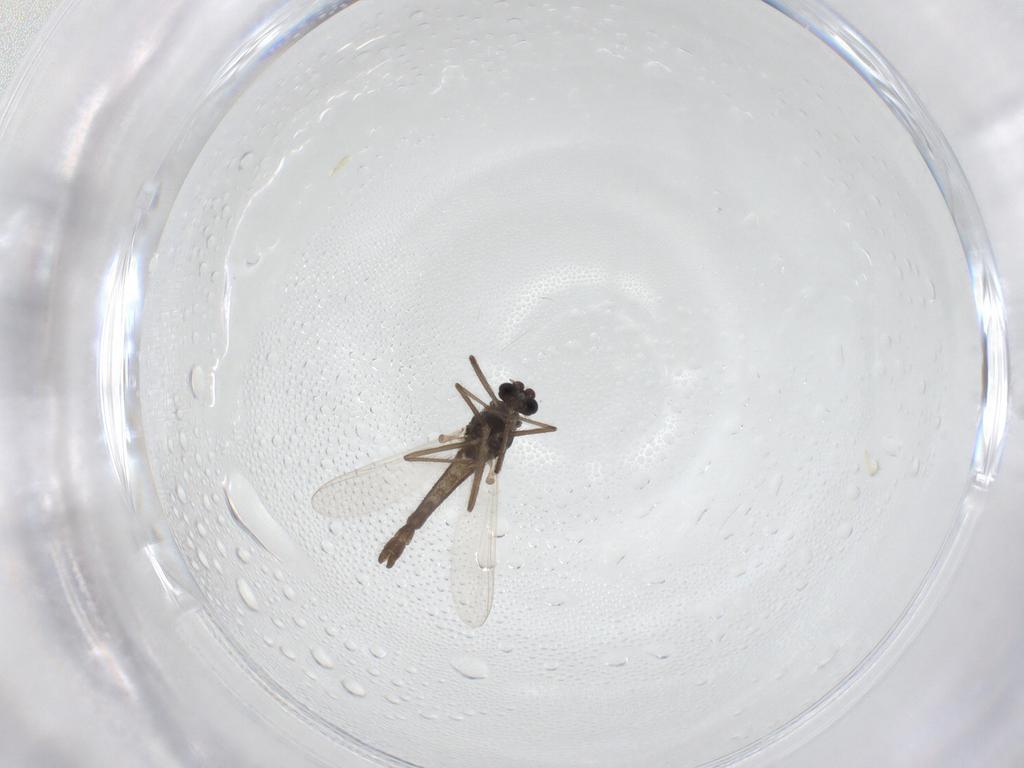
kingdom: Animalia
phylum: Arthropoda
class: Insecta
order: Diptera
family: Chironomidae
